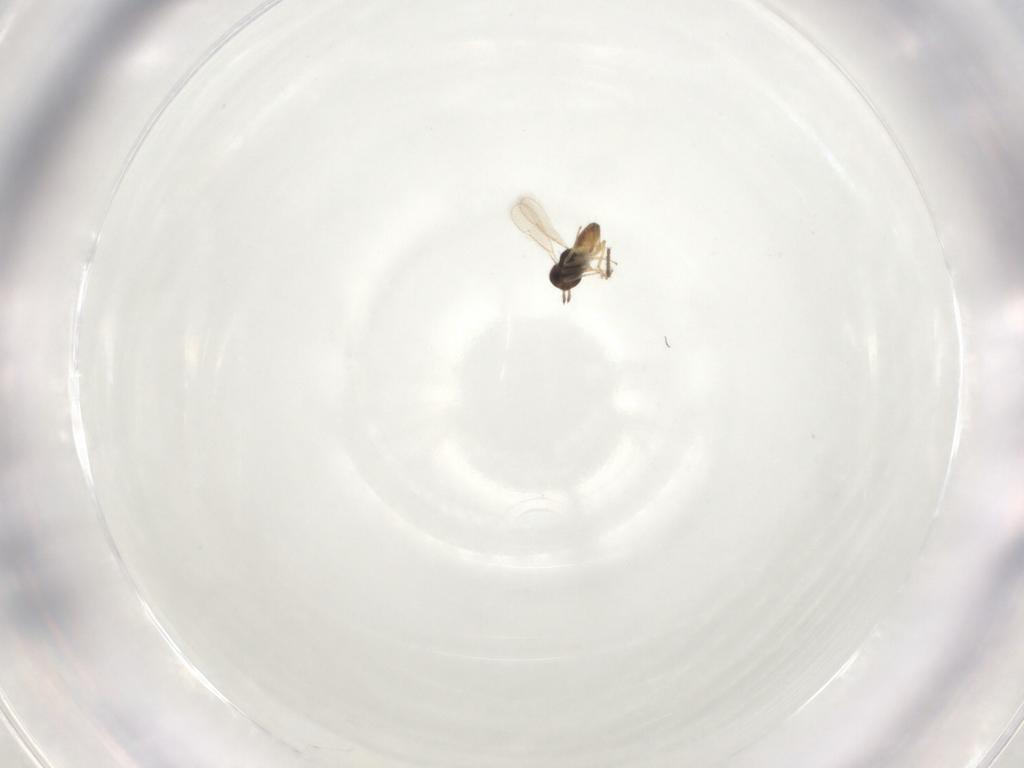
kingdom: Animalia
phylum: Arthropoda
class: Insecta
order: Hymenoptera
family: Eulophidae
